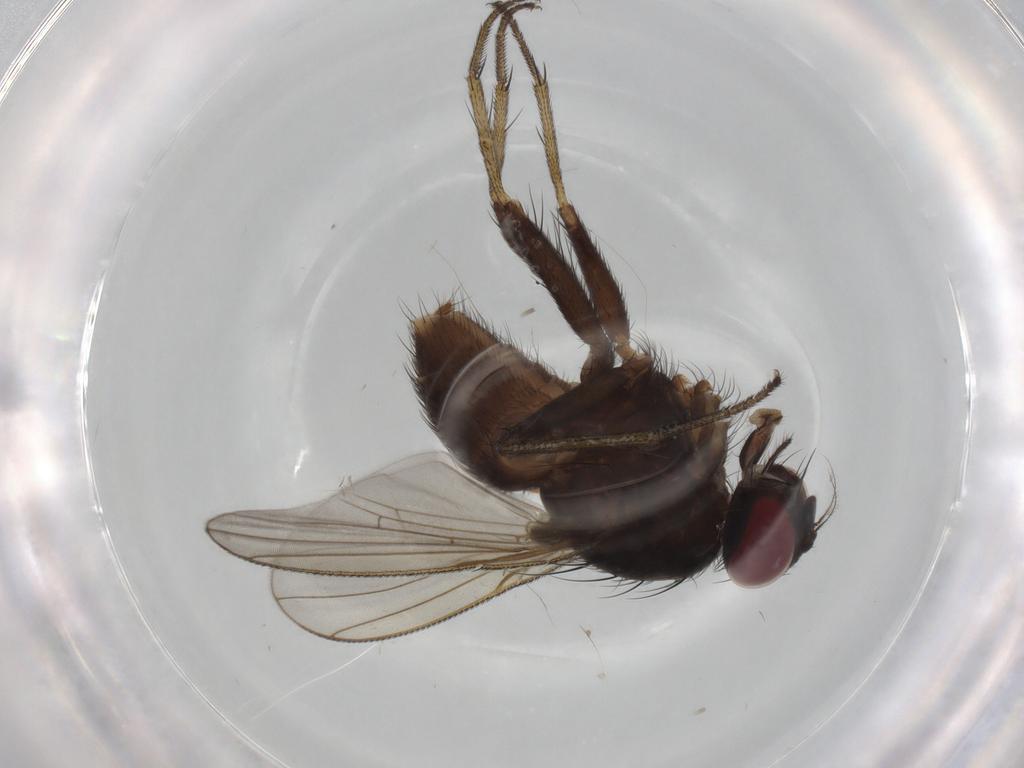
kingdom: Animalia
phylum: Arthropoda
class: Insecta
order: Diptera
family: Muscidae
